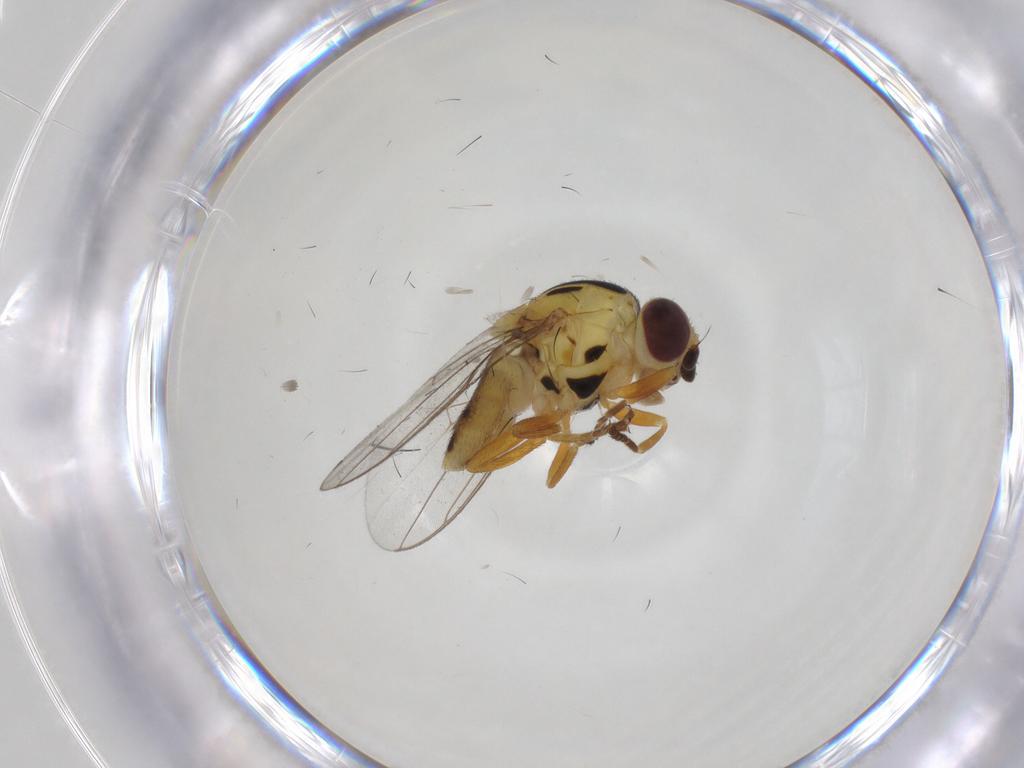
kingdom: Animalia
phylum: Arthropoda
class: Insecta
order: Diptera
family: Chloropidae
